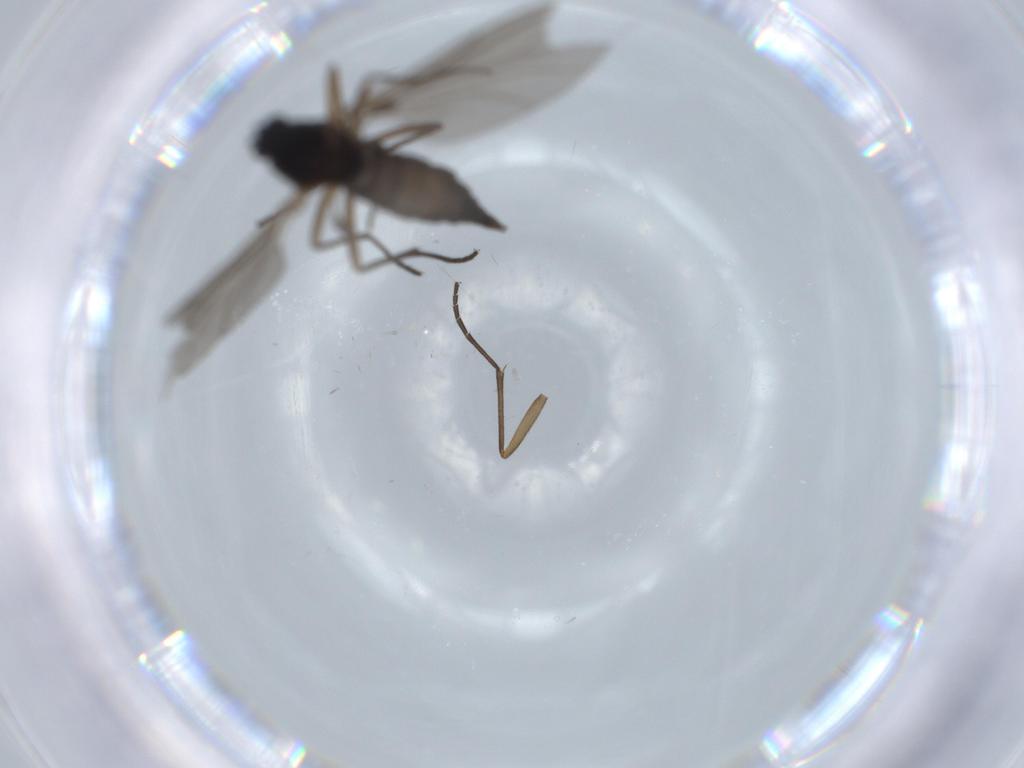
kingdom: Animalia
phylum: Arthropoda
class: Insecta
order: Diptera
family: Sciaridae
